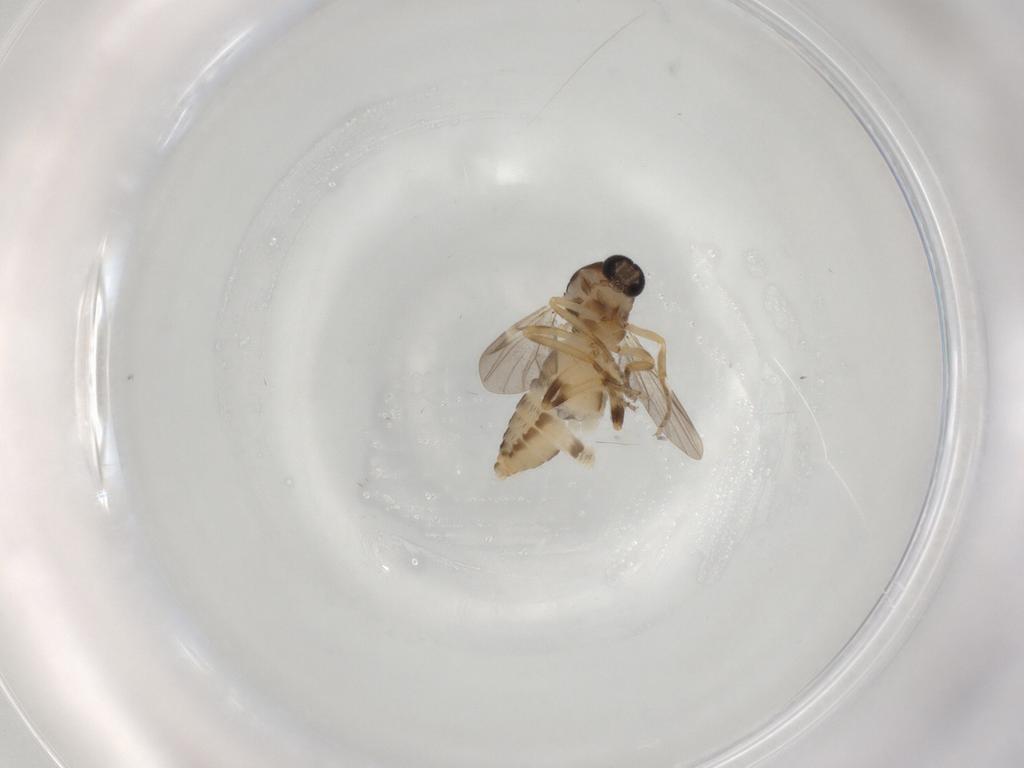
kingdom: Animalia
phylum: Arthropoda
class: Insecta
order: Diptera
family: Ceratopogonidae
